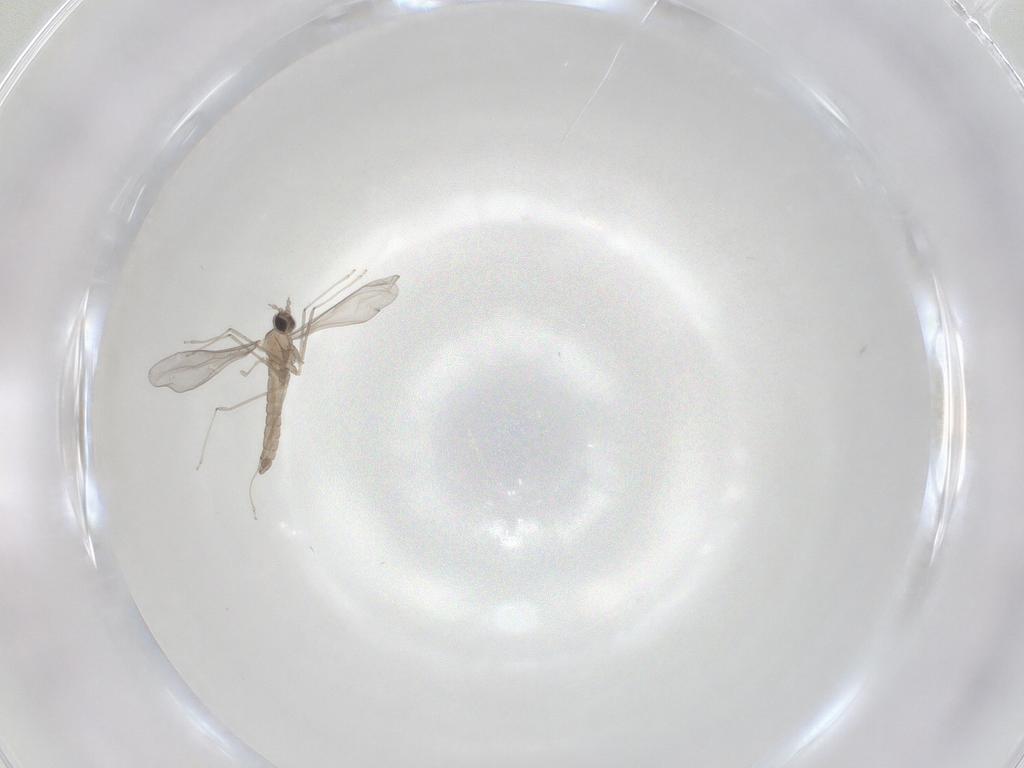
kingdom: Animalia
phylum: Arthropoda
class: Insecta
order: Diptera
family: Cecidomyiidae
